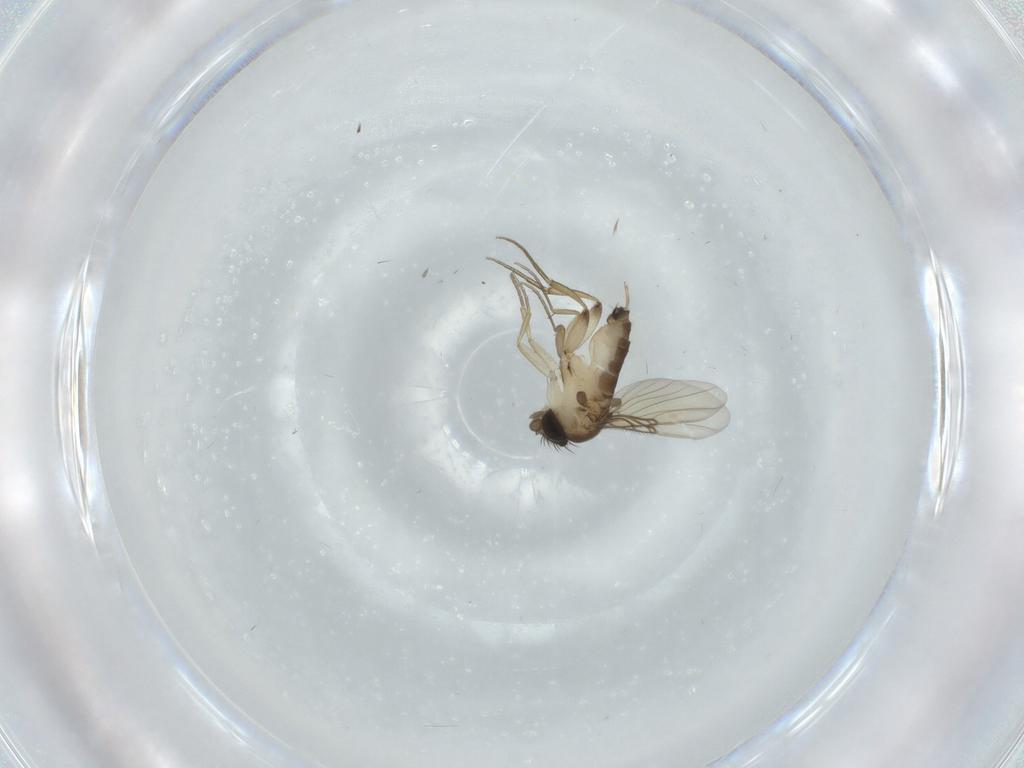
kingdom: Animalia
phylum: Arthropoda
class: Insecta
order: Diptera
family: Phoridae
